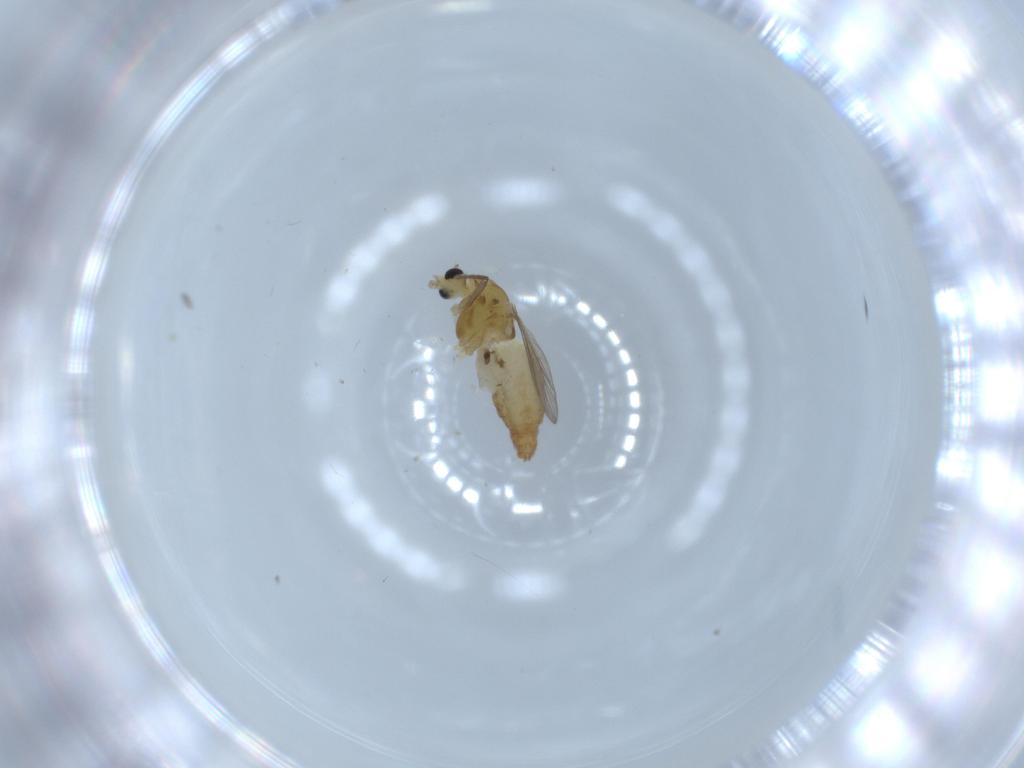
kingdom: Animalia
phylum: Arthropoda
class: Insecta
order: Diptera
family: Chironomidae
